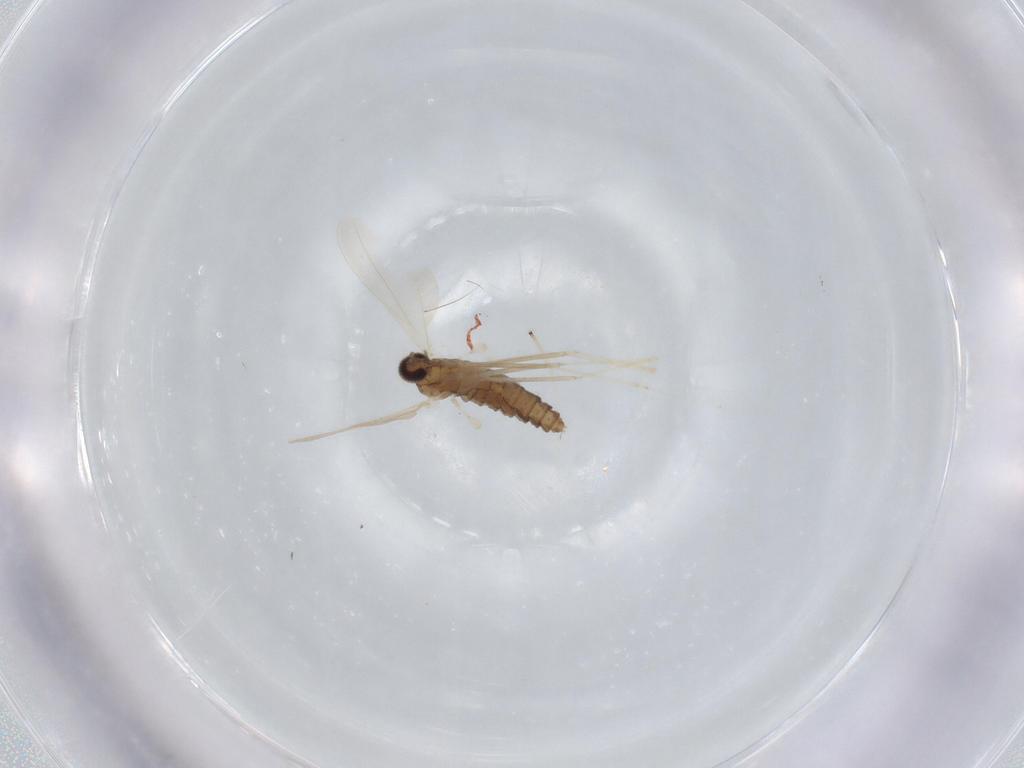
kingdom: Animalia
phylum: Arthropoda
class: Insecta
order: Diptera
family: Cecidomyiidae
